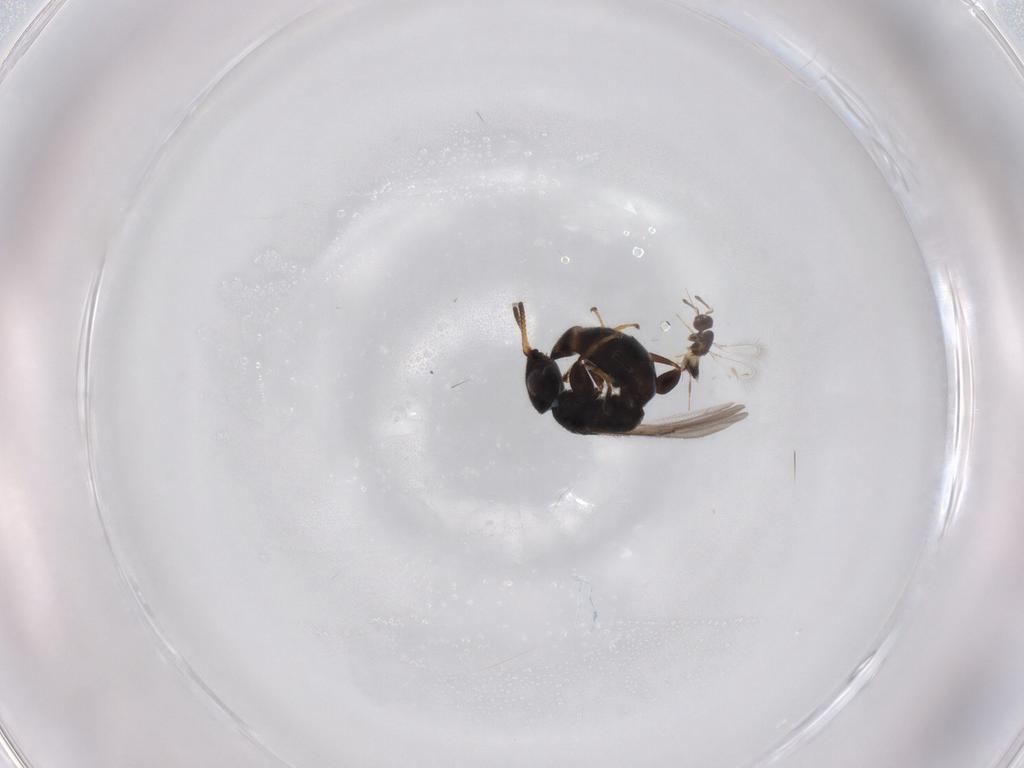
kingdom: Animalia
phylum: Arthropoda
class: Insecta
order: Hymenoptera
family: Bethylidae
